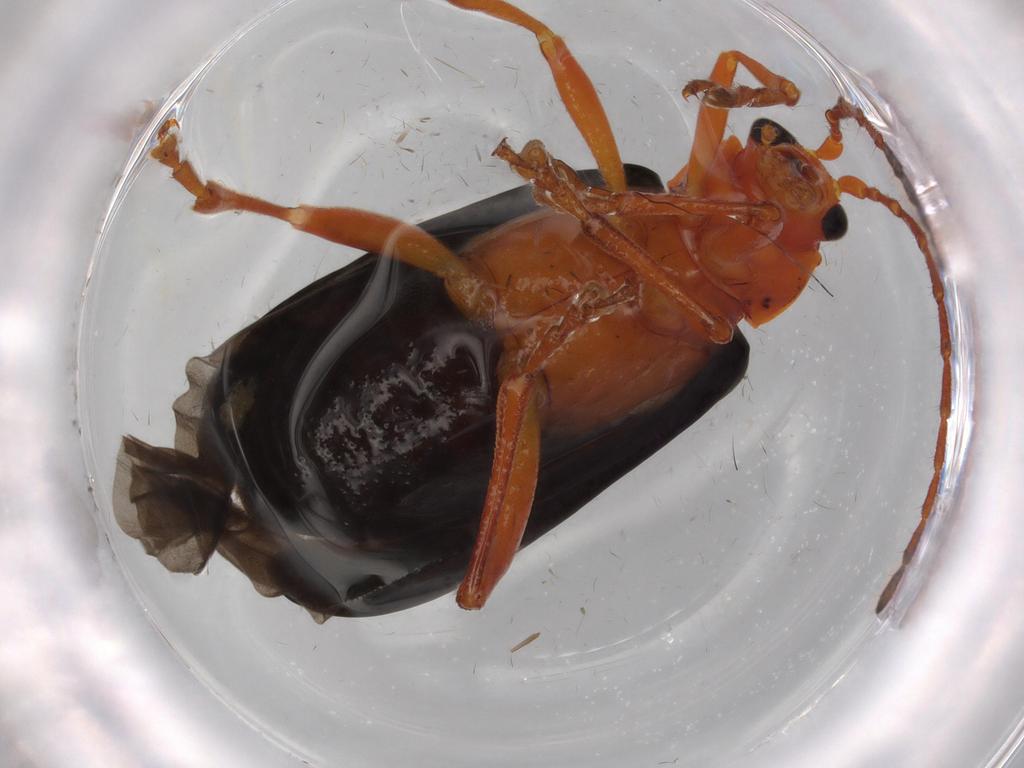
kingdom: Animalia
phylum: Arthropoda
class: Insecta
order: Coleoptera
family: Chrysomelidae
